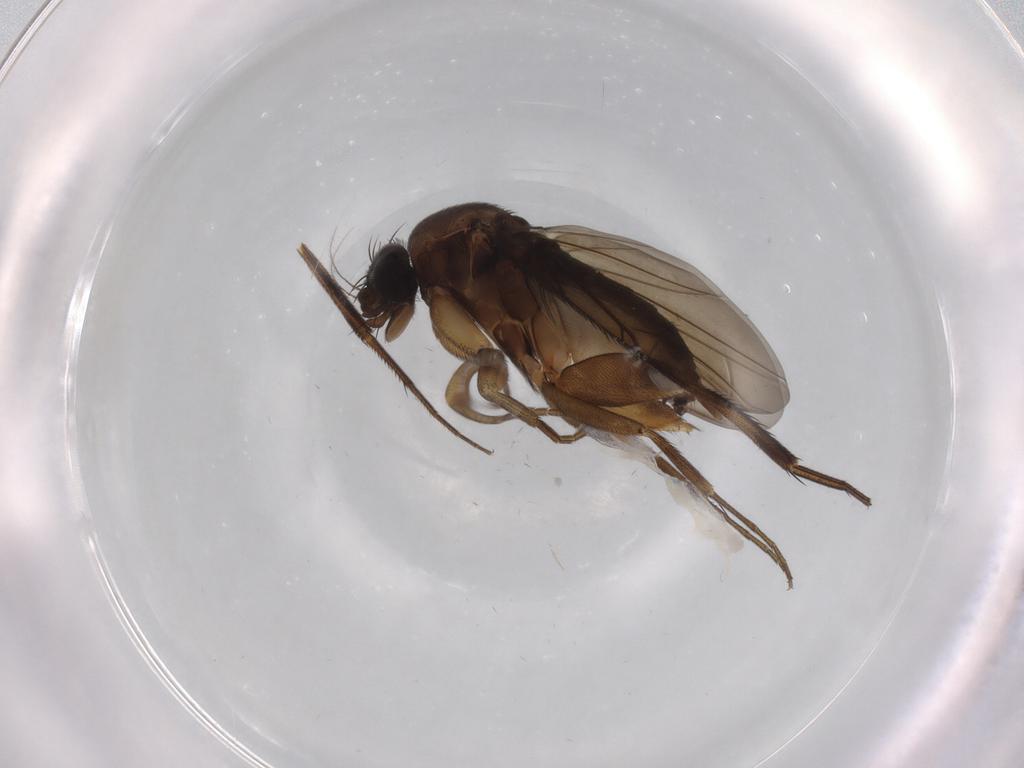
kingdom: Animalia
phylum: Arthropoda
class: Insecta
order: Diptera
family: Phoridae
